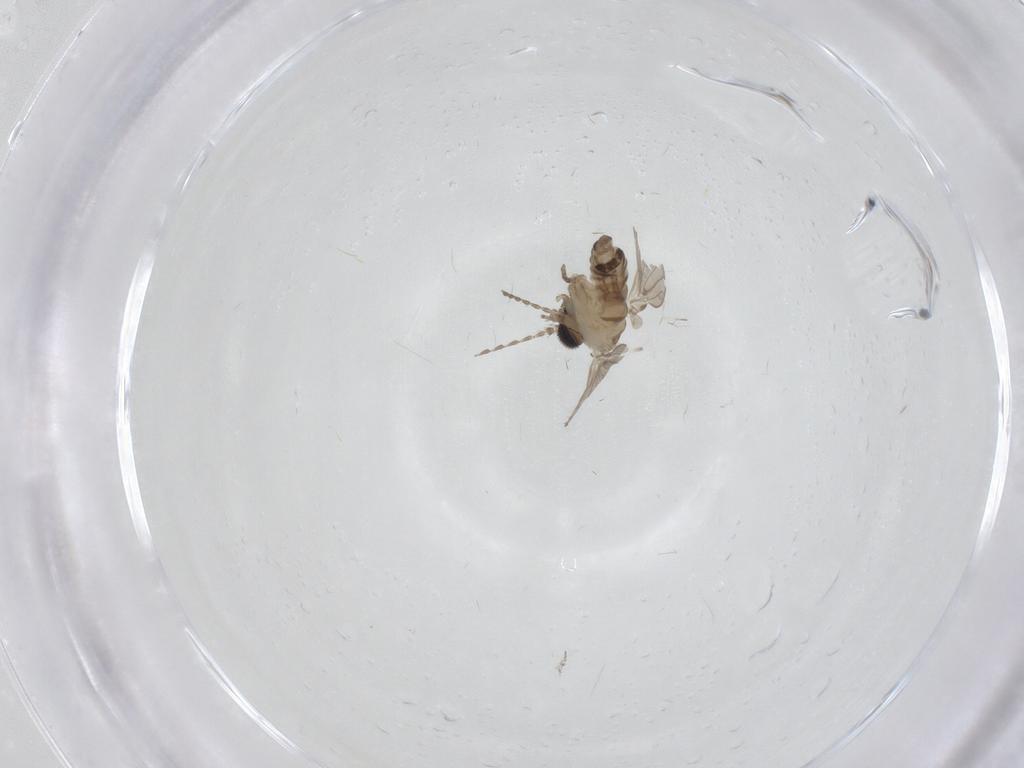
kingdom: Animalia
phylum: Arthropoda
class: Insecta
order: Diptera
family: Psychodidae
